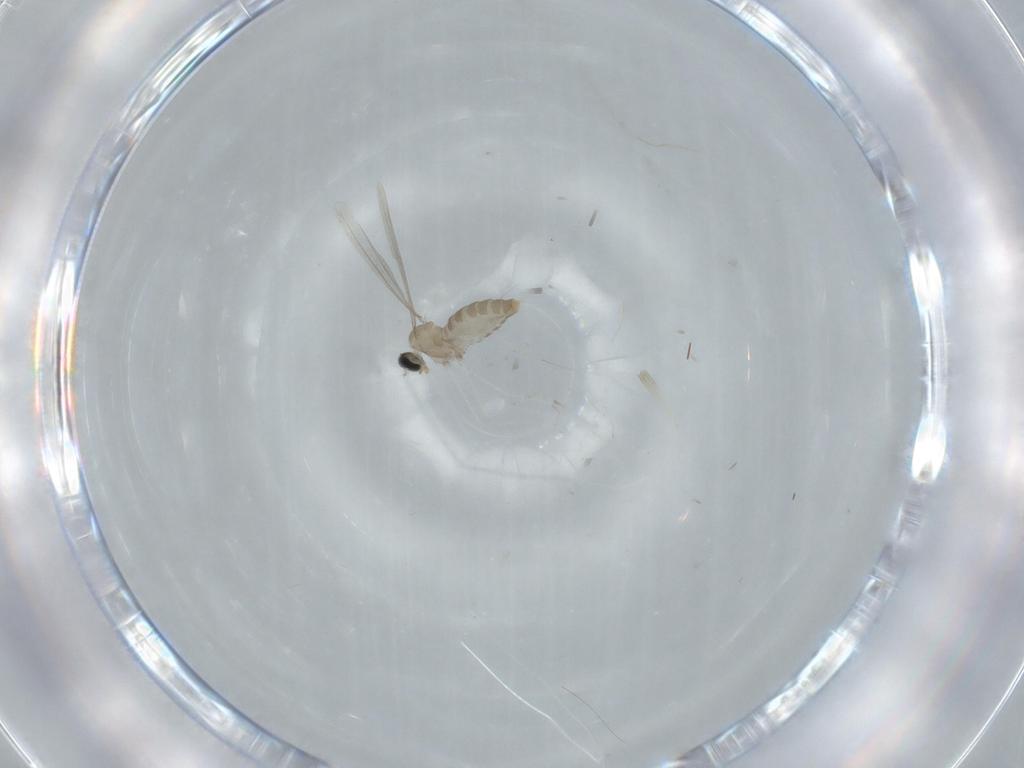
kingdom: Animalia
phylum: Arthropoda
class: Insecta
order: Diptera
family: Cecidomyiidae
